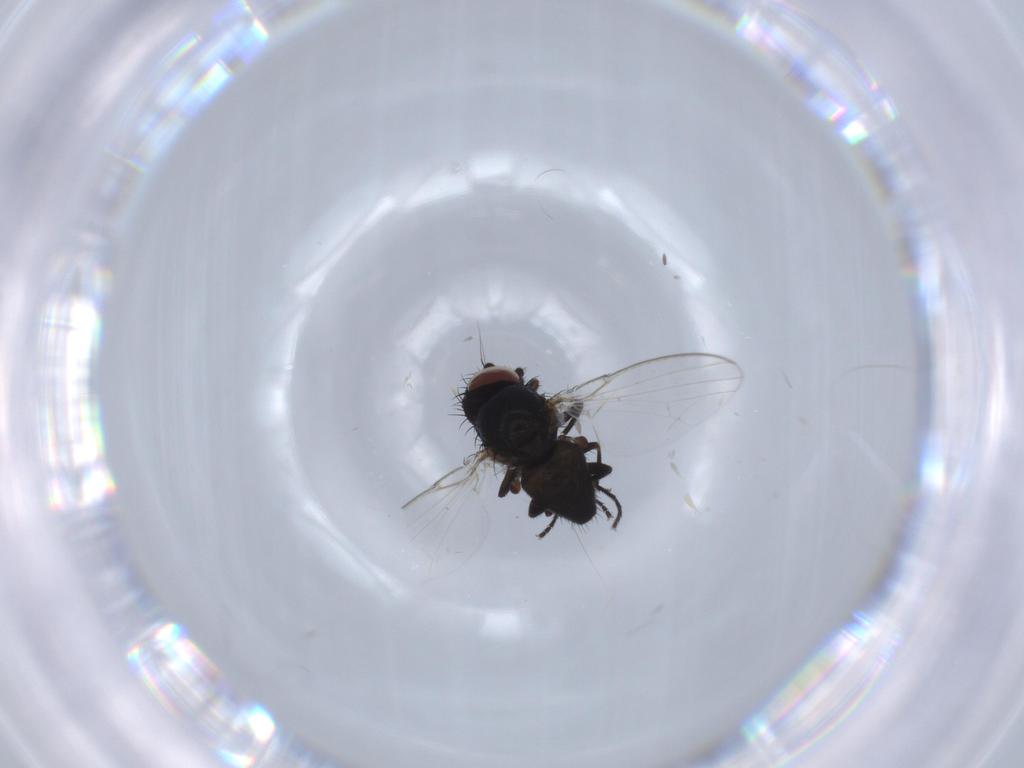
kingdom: Animalia
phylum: Arthropoda
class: Insecta
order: Diptera
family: Milichiidae
